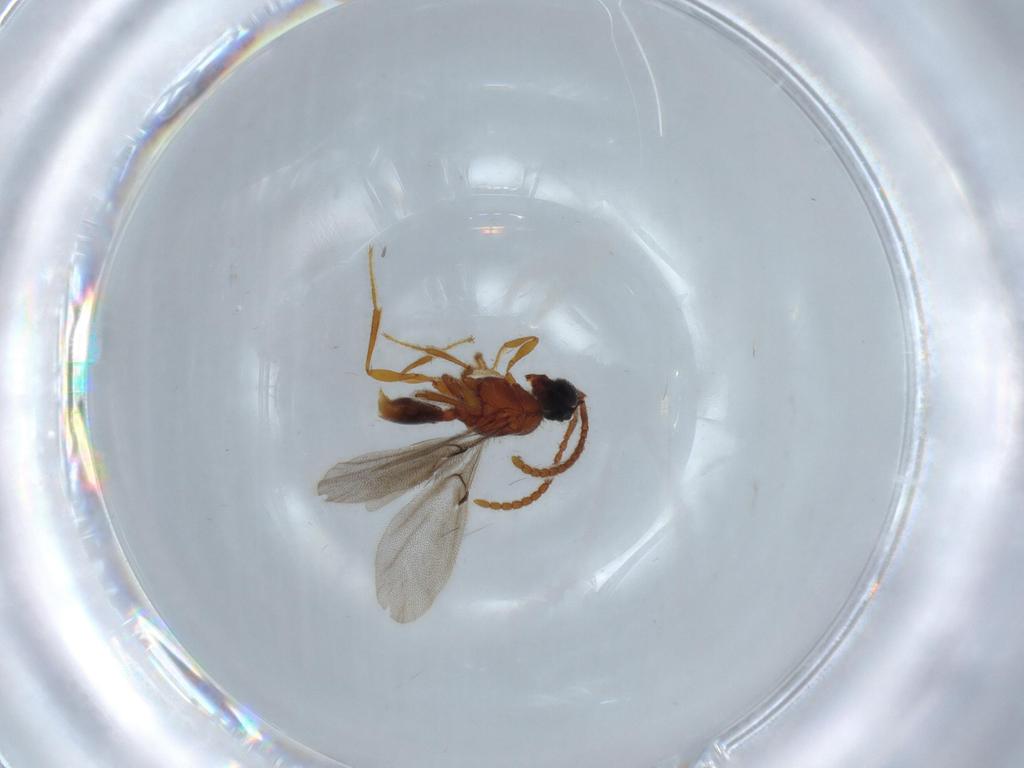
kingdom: Animalia
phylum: Arthropoda
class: Insecta
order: Hymenoptera
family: Diapriidae
